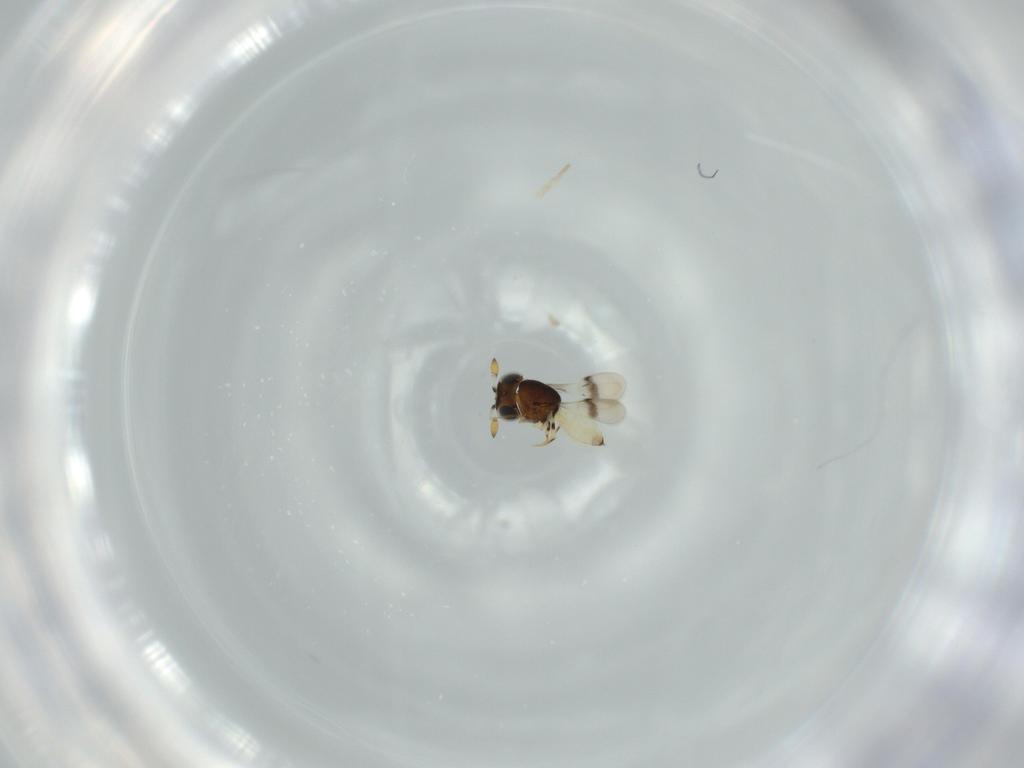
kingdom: Animalia
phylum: Arthropoda
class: Insecta
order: Hymenoptera
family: Scelionidae
